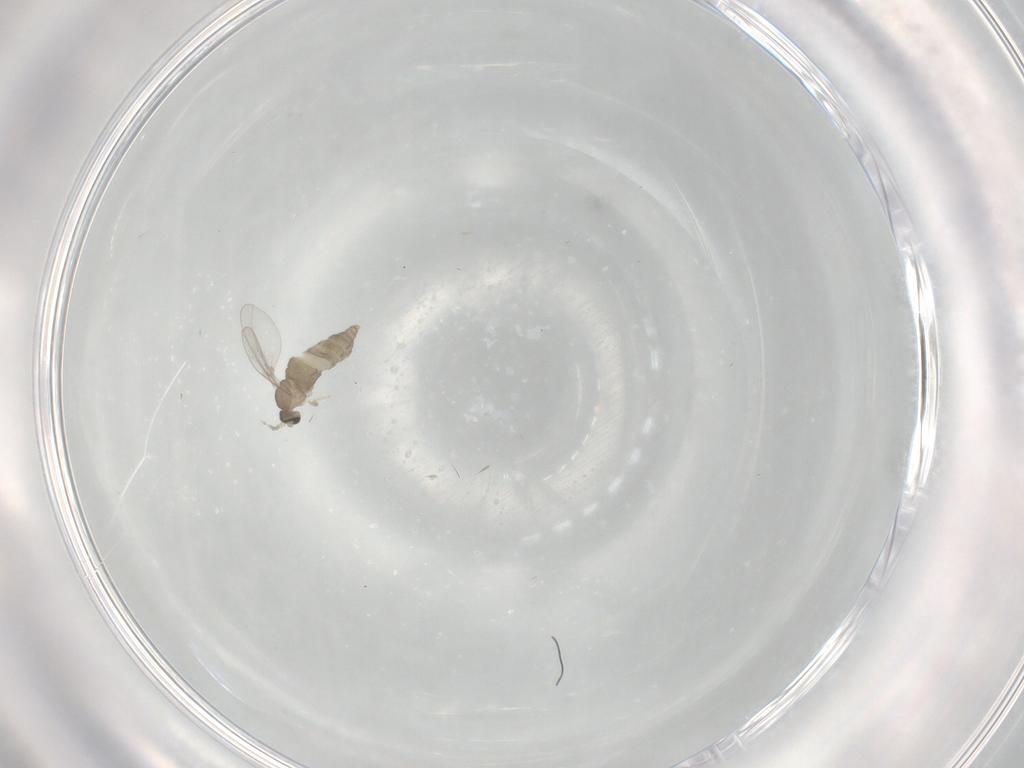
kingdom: Animalia
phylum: Arthropoda
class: Insecta
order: Diptera
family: Cecidomyiidae
